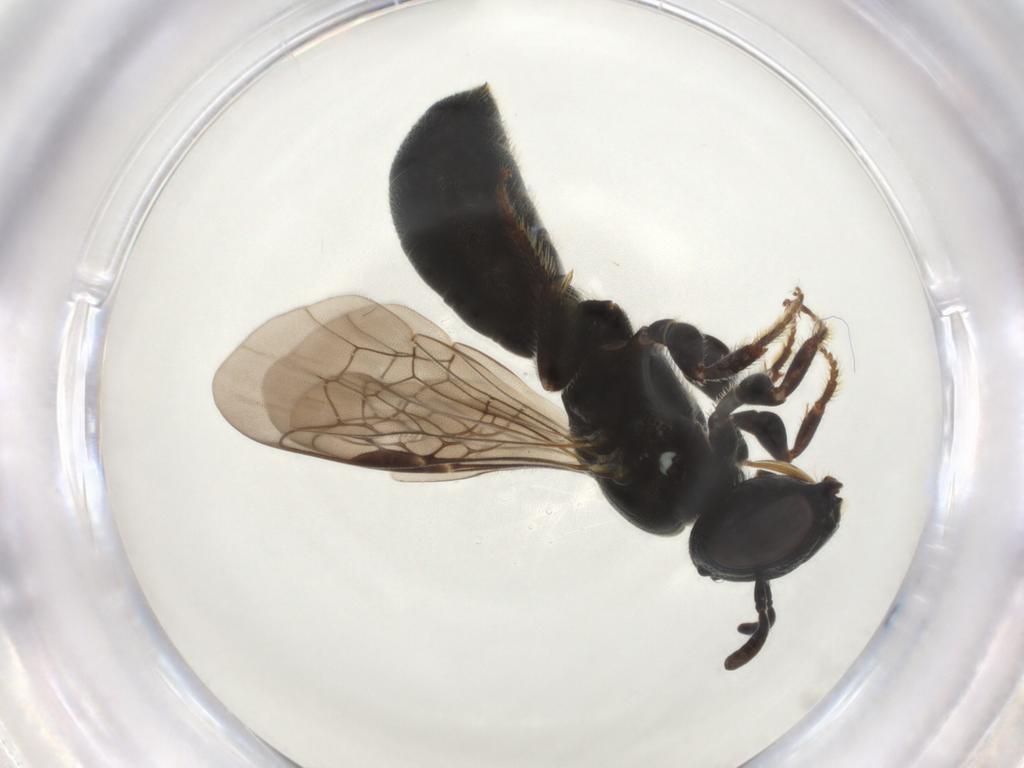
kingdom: Animalia
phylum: Arthropoda
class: Insecta
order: Hymenoptera
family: Apidae
